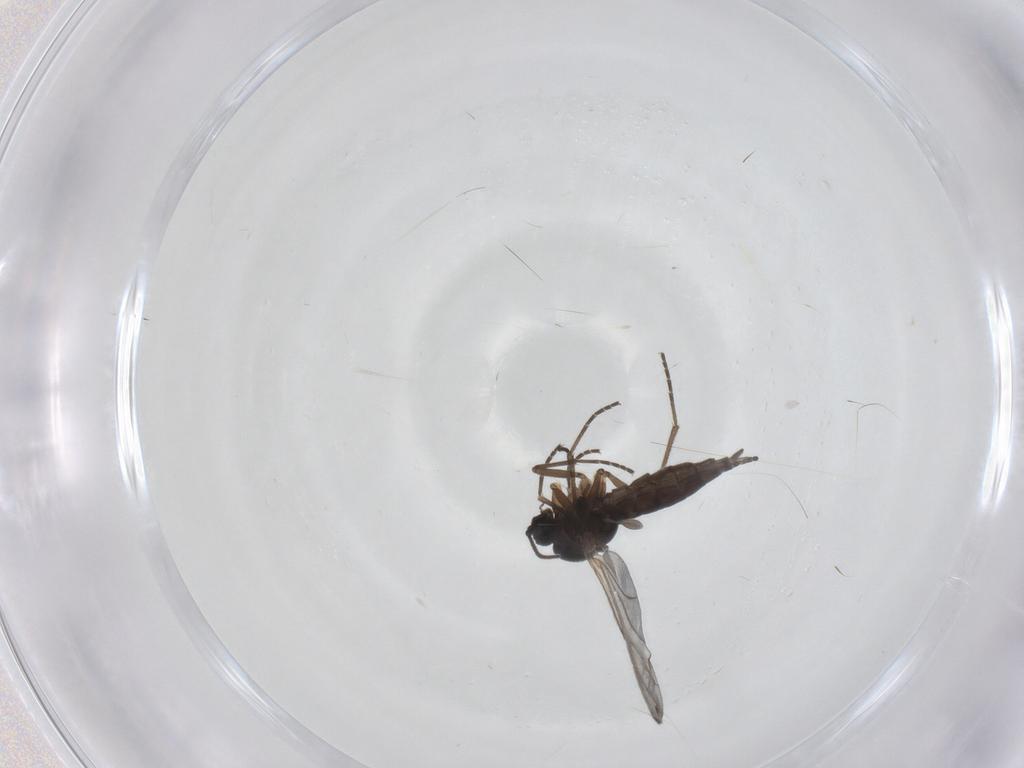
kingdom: Animalia
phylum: Arthropoda
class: Insecta
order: Diptera
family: Sciaridae
